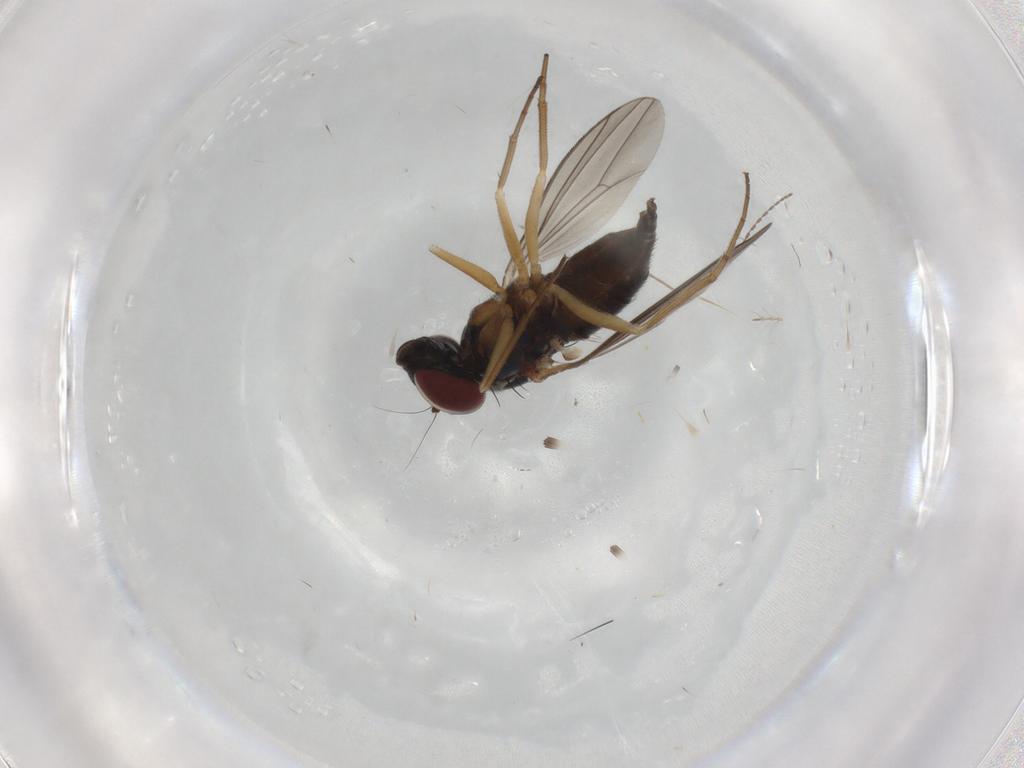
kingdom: Animalia
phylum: Arthropoda
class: Insecta
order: Diptera
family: Dolichopodidae
